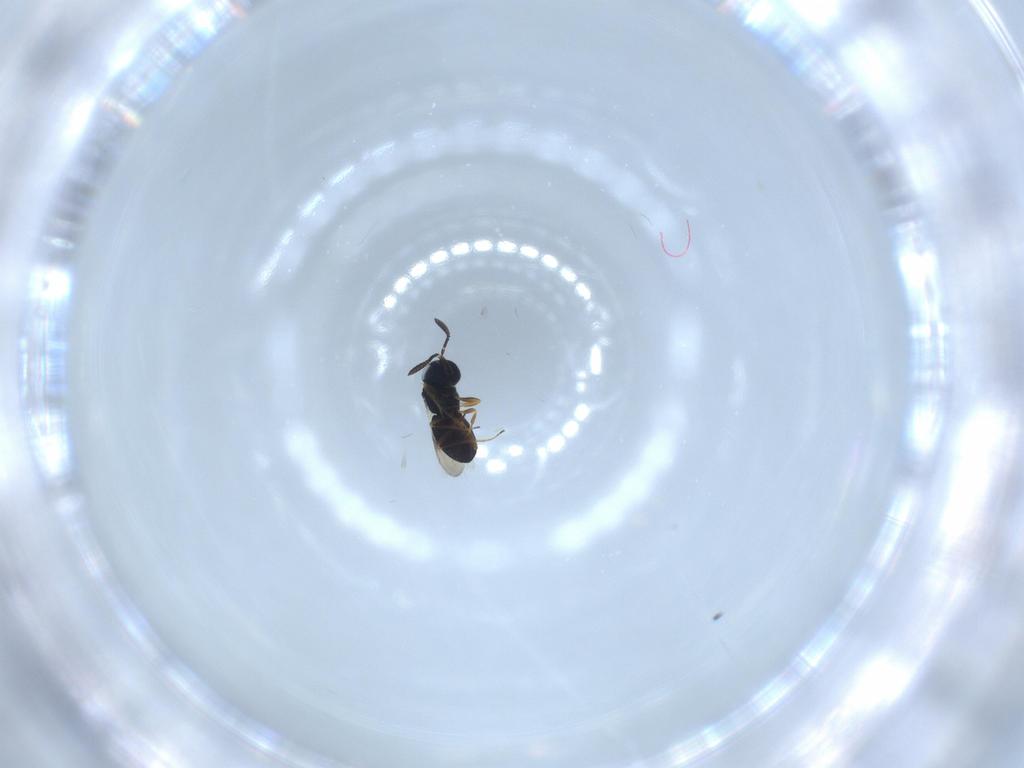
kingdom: Animalia
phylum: Arthropoda
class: Insecta
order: Hymenoptera
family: Scelionidae
